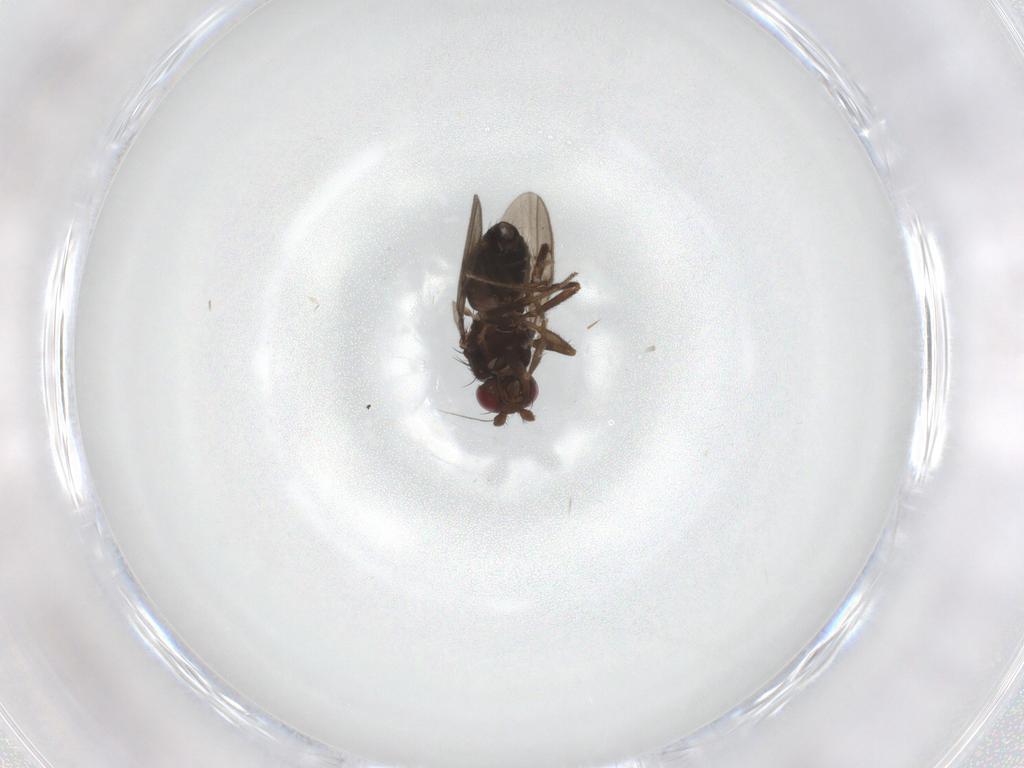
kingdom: Animalia
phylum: Arthropoda
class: Insecta
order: Diptera
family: Sphaeroceridae
